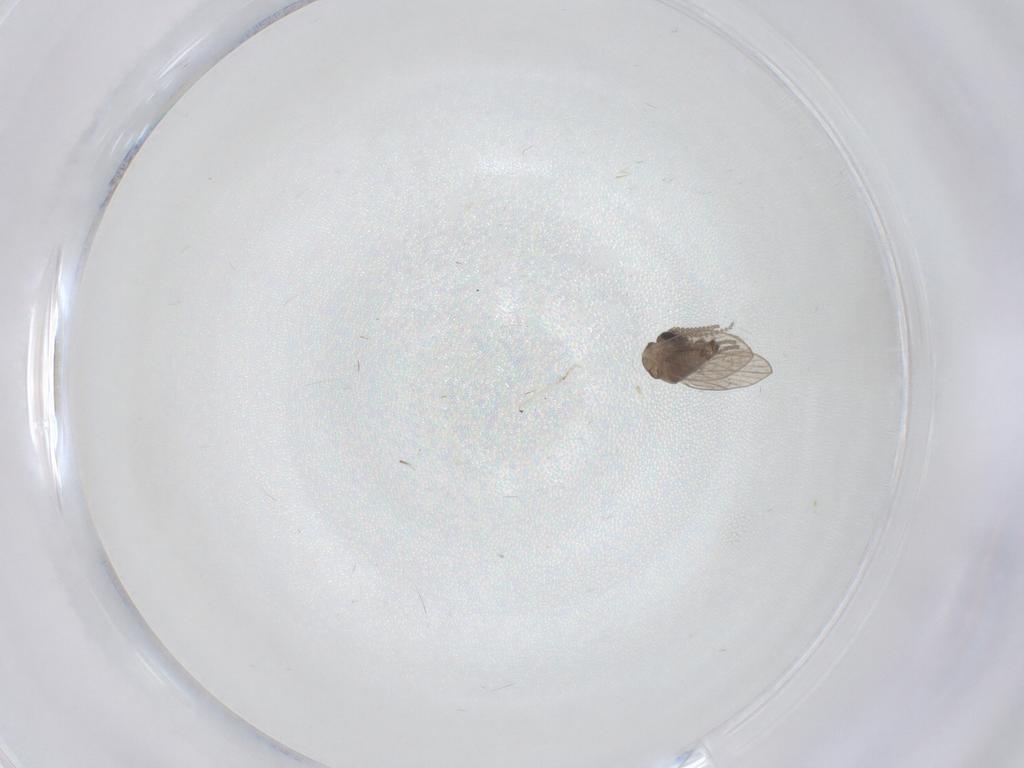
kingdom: Animalia
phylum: Arthropoda
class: Insecta
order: Diptera
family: Psychodidae
